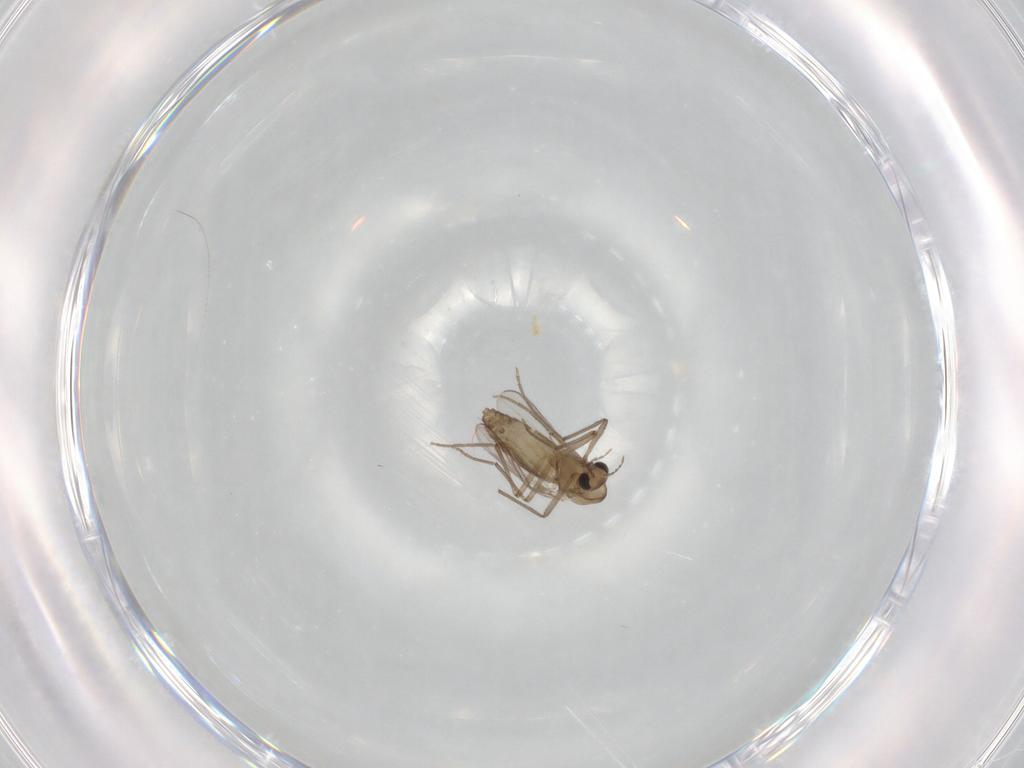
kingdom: Animalia
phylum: Arthropoda
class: Insecta
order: Diptera
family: Chironomidae
